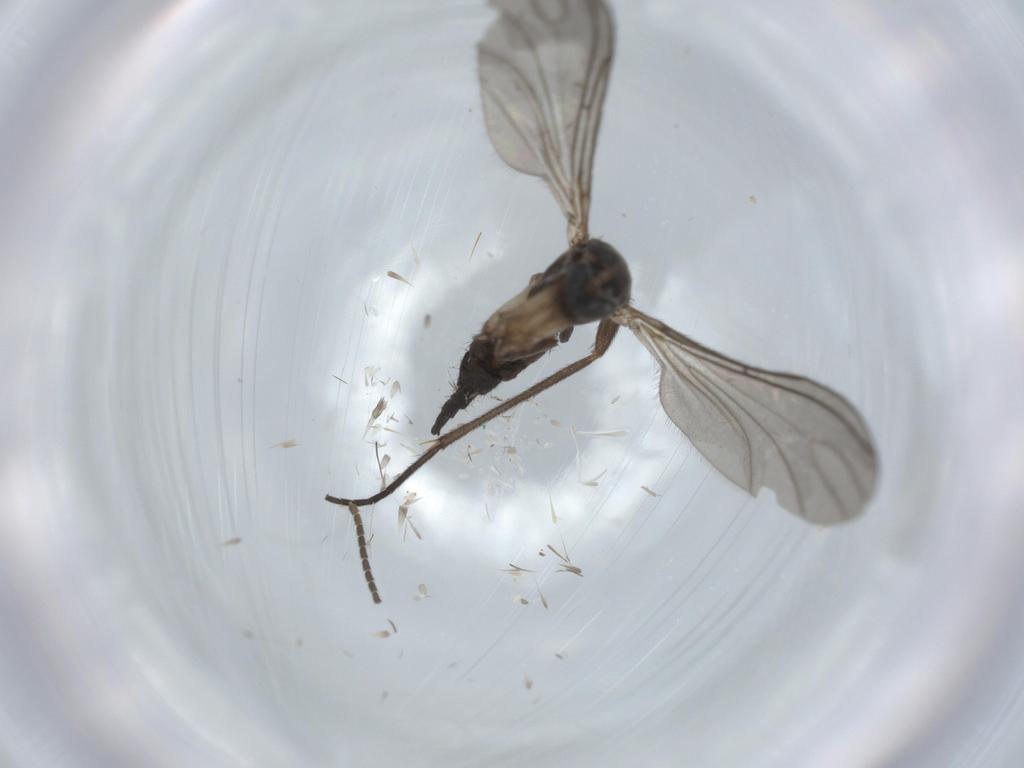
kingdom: Animalia
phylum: Arthropoda
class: Insecta
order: Diptera
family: Sciaridae
